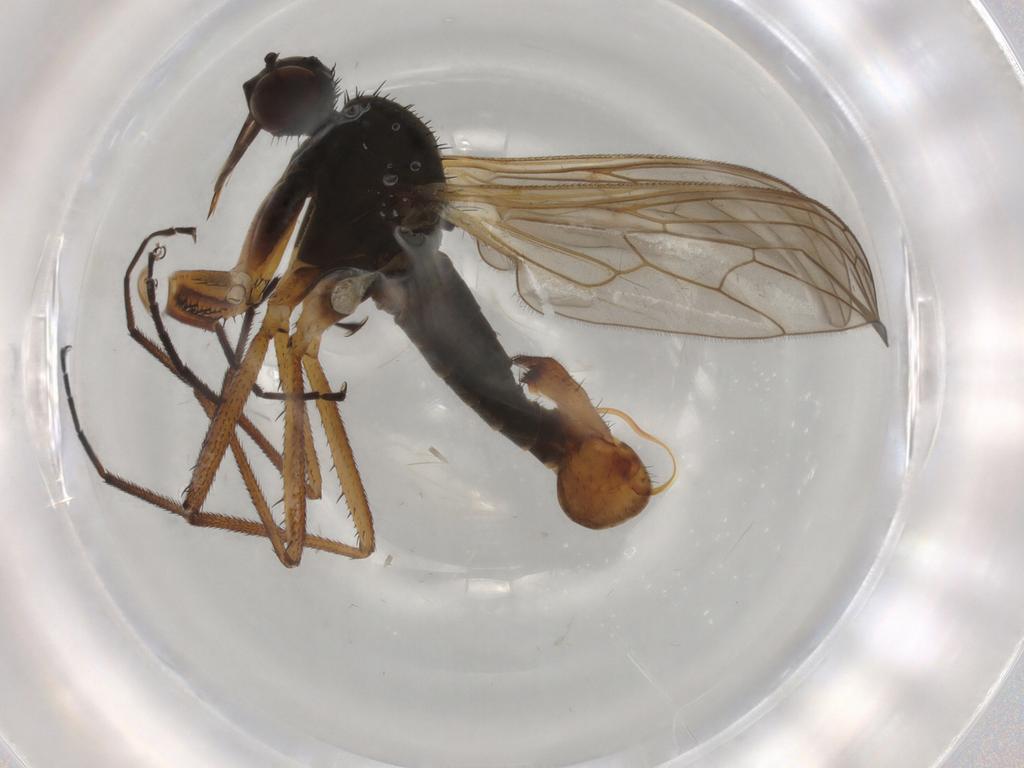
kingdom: Animalia
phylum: Arthropoda
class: Insecta
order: Diptera
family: Empididae
